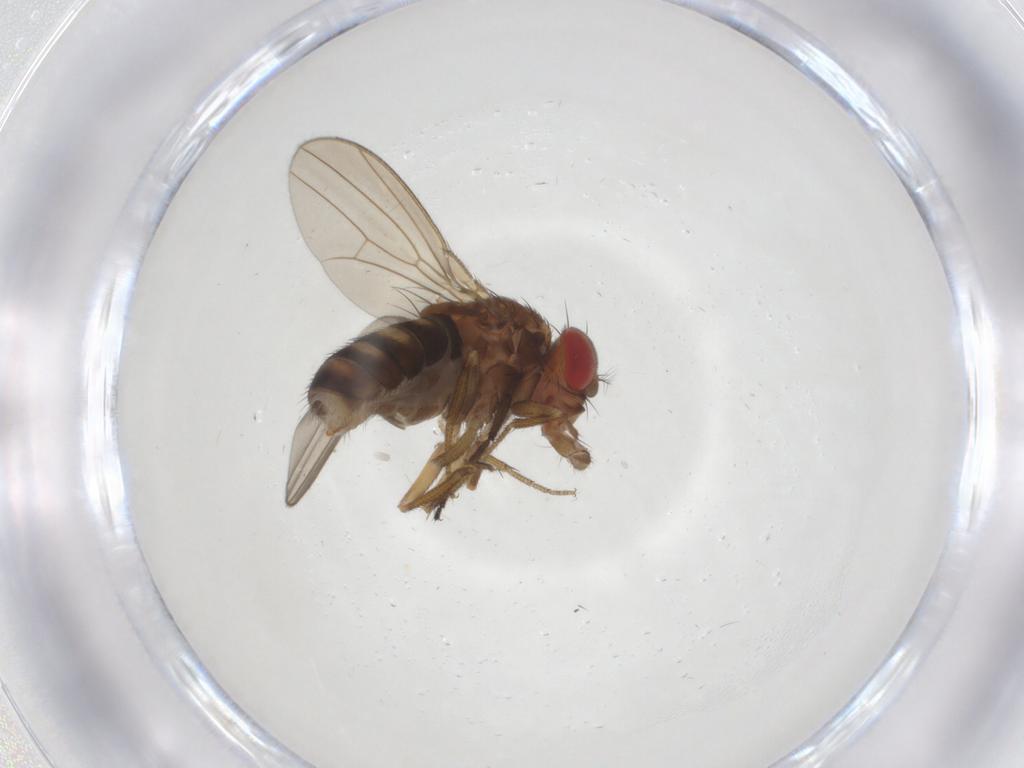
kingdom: Animalia
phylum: Arthropoda
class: Insecta
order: Diptera
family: Drosophilidae
